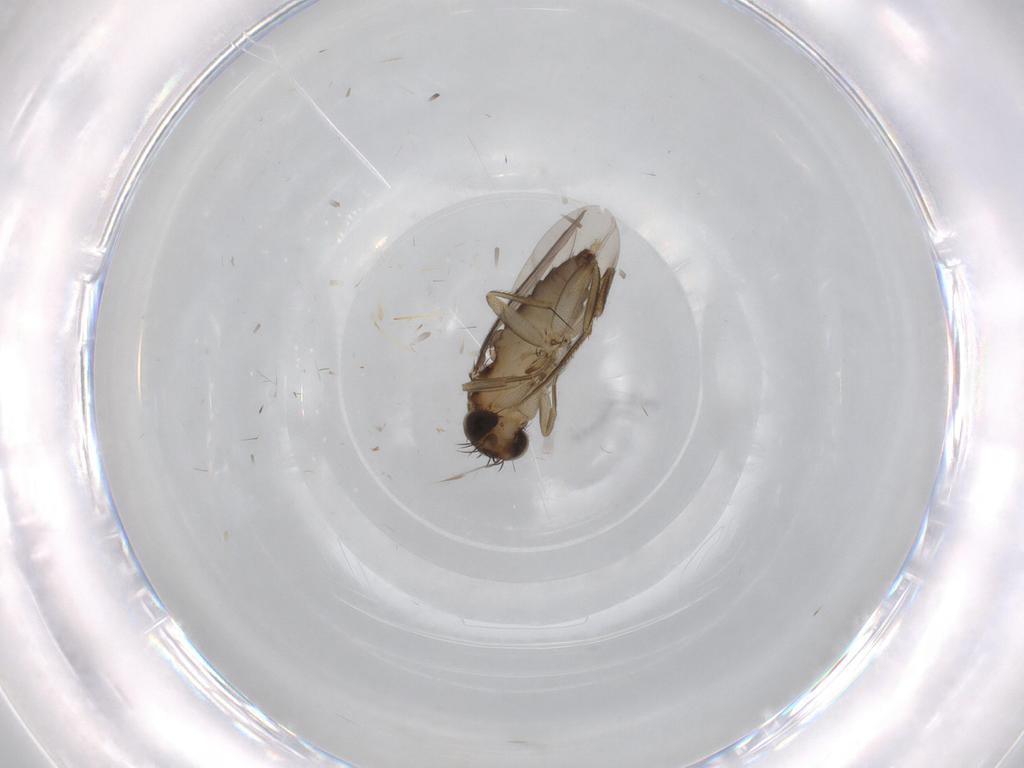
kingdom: Animalia
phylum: Arthropoda
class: Insecta
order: Diptera
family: Phoridae
